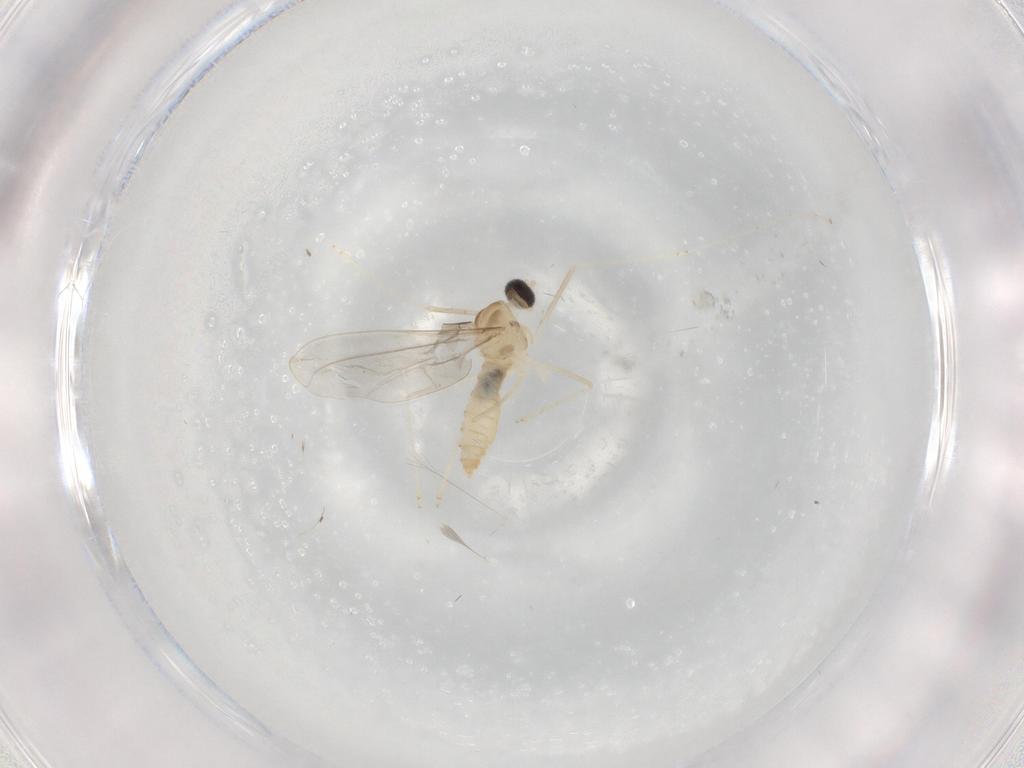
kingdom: Animalia
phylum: Arthropoda
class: Insecta
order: Diptera
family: Cecidomyiidae
